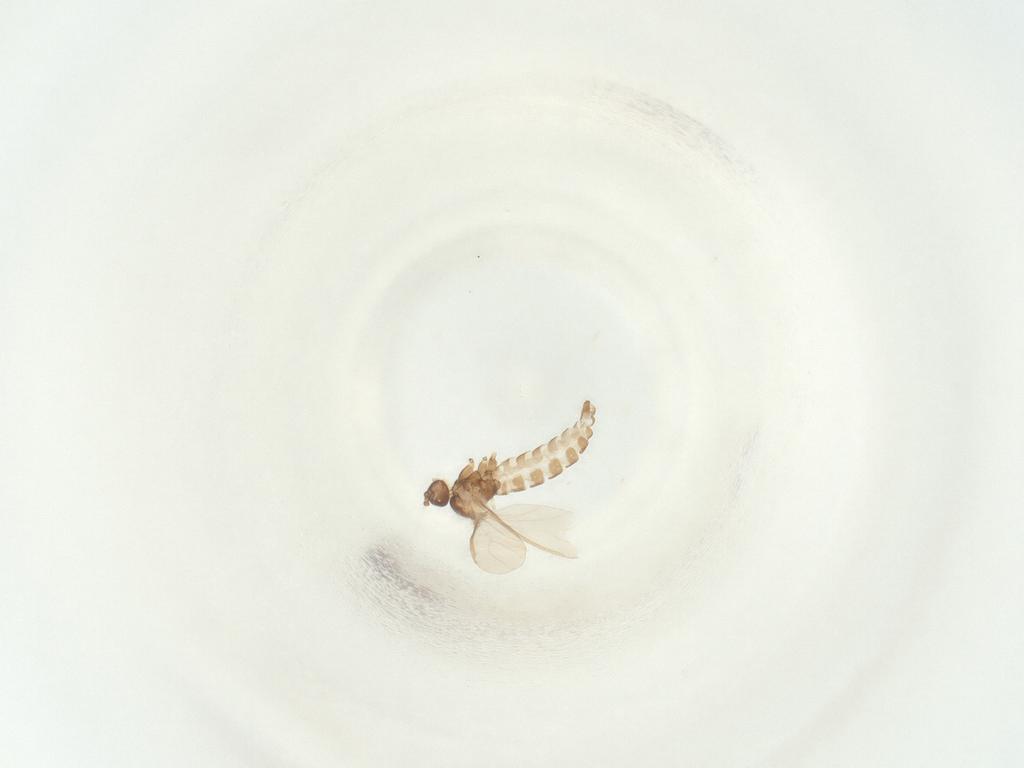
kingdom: Animalia
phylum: Arthropoda
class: Insecta
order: Diptera
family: Sciaridae
